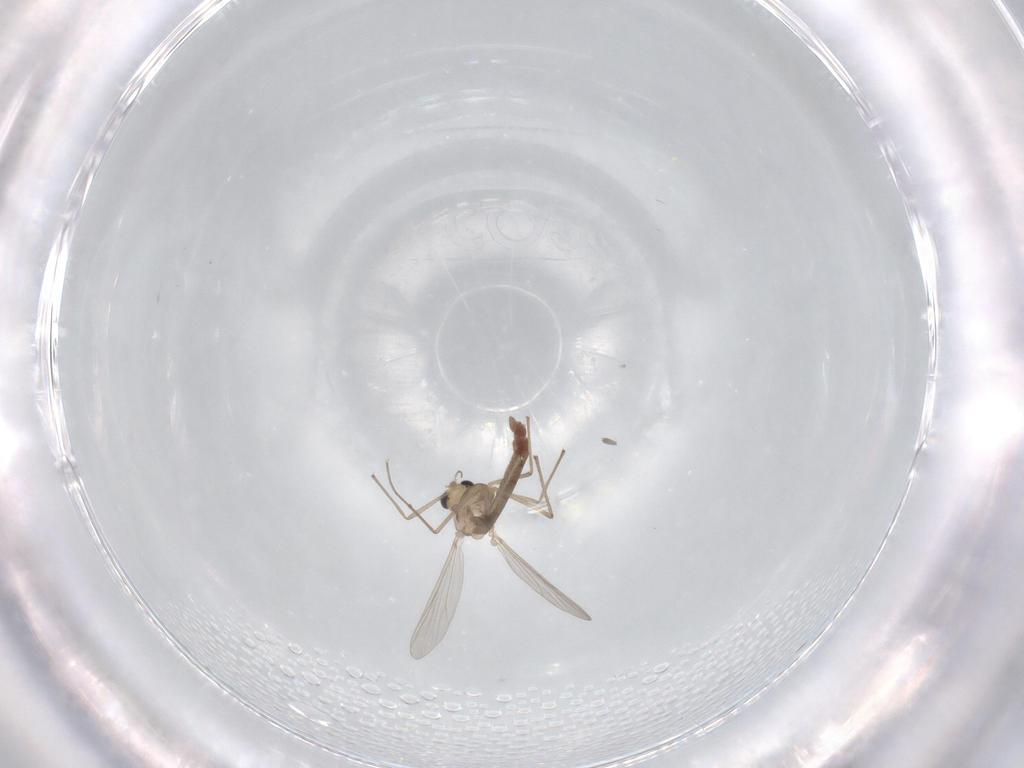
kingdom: Animalia
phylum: Arthropoda
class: Insecta
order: Diptera
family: Chironomidae
